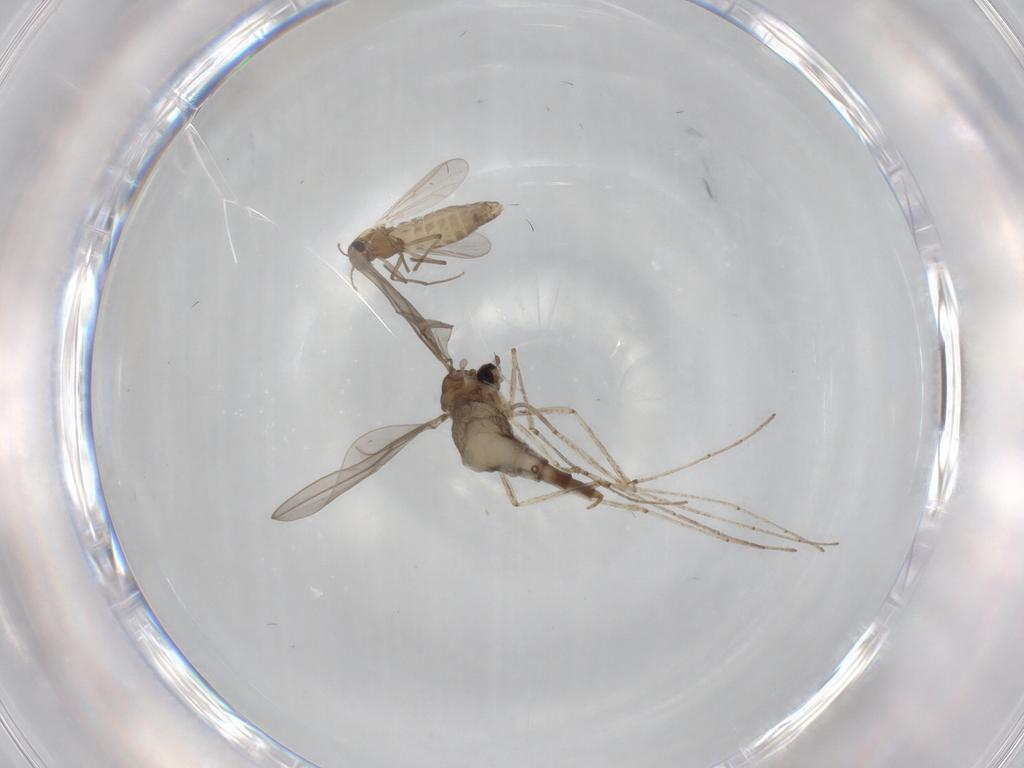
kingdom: Animalia
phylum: Arthropoda
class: Insecta
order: Diptera
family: Chironomidae
